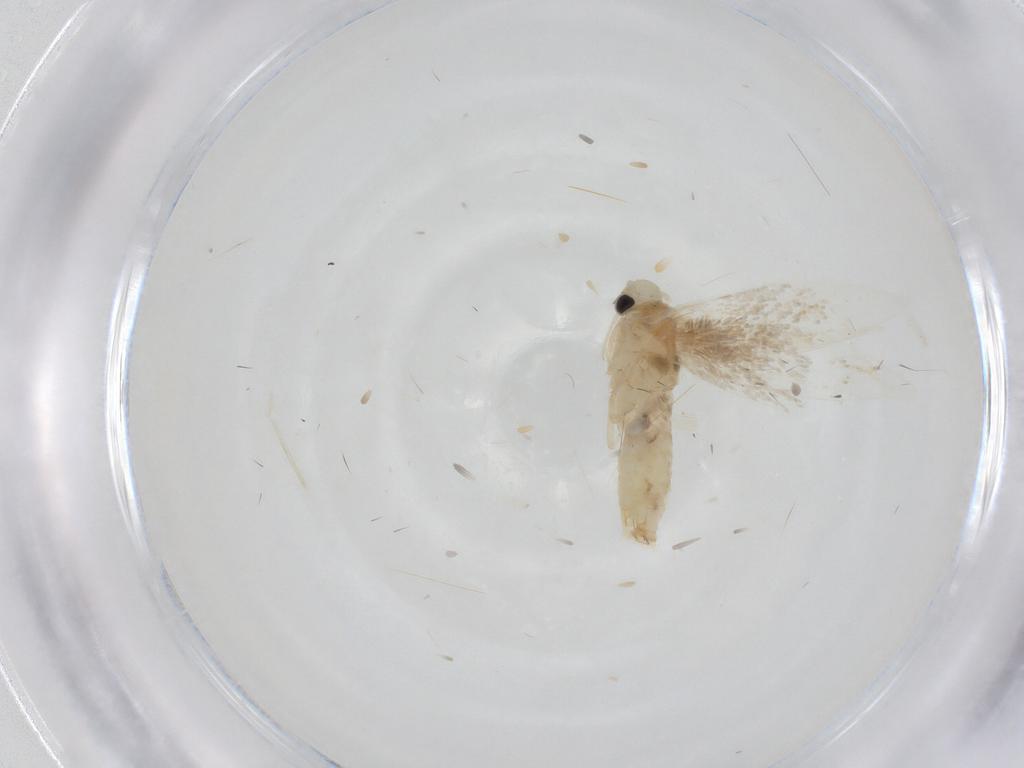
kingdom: Animalia
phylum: Arthropoda
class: Insecta
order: Lepidoptera
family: Gracillariidae
